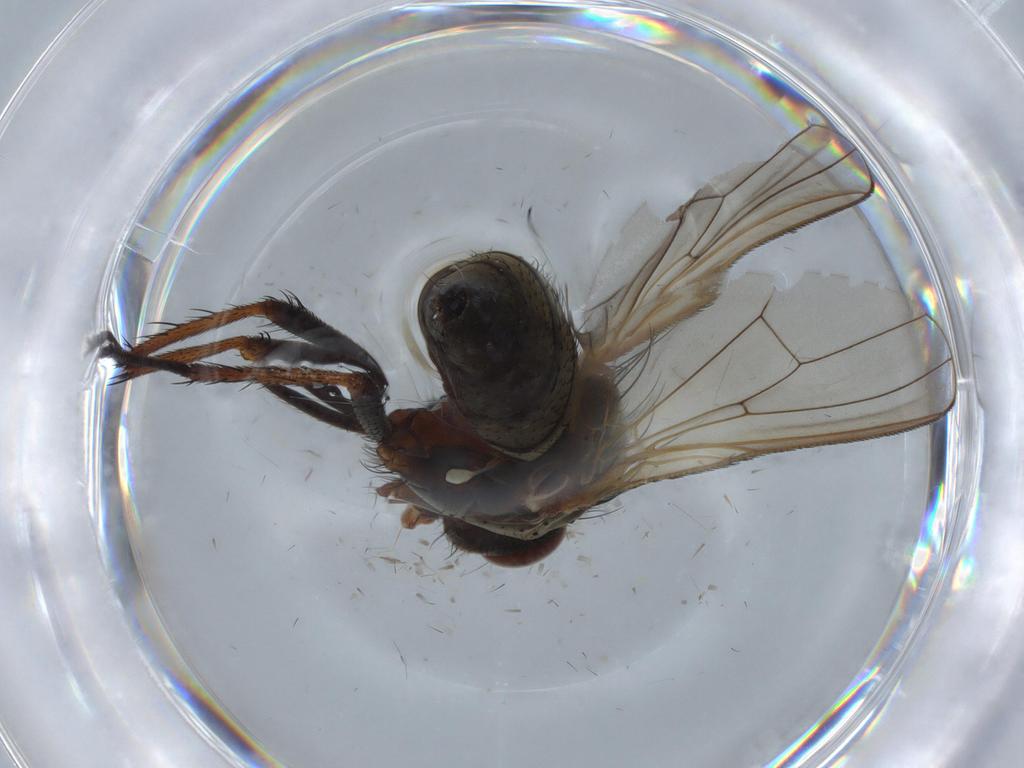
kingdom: Animalia
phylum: Arthropoda
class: Insecta
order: Diptera
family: Anthomyiidae
